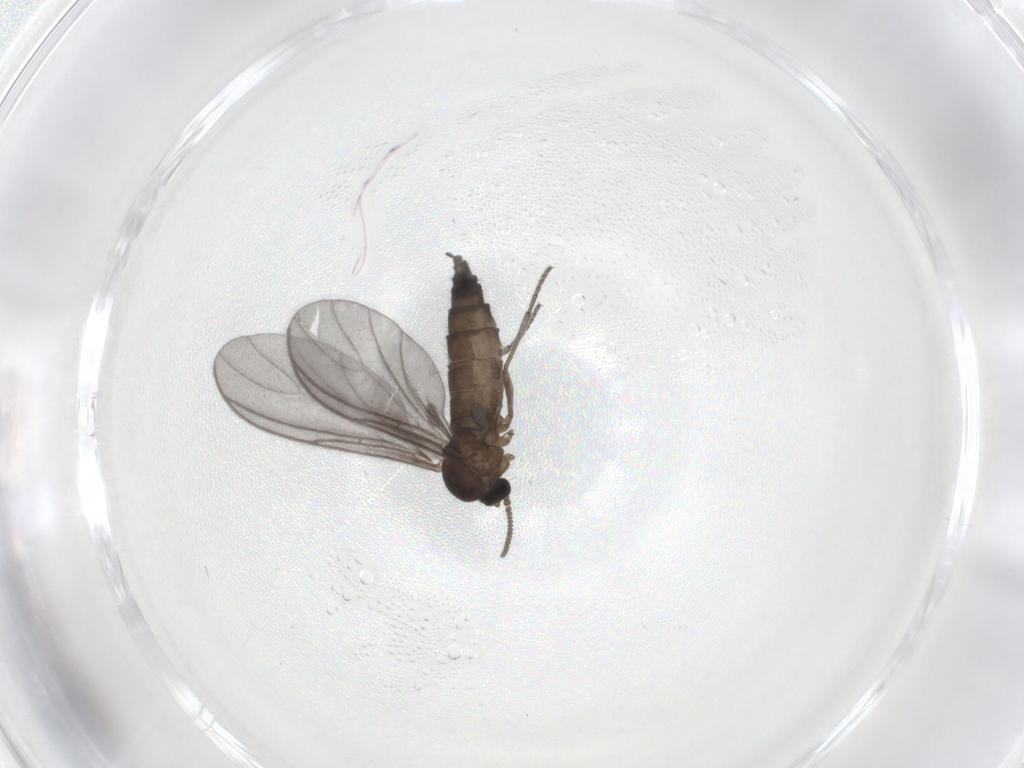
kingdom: Animalia
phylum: Arthropoda
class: Insecta
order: Diptera
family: Sciaridae
